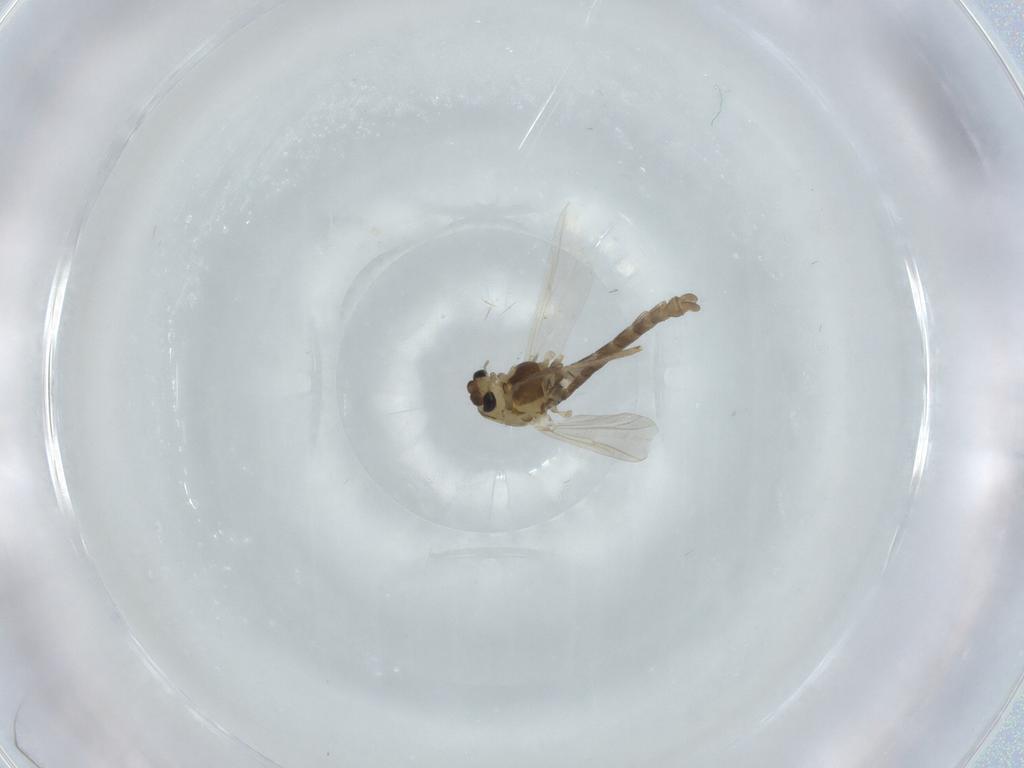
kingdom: Animalia
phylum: Arthropoda
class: Insecta
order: Diptera
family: Chironomidae
